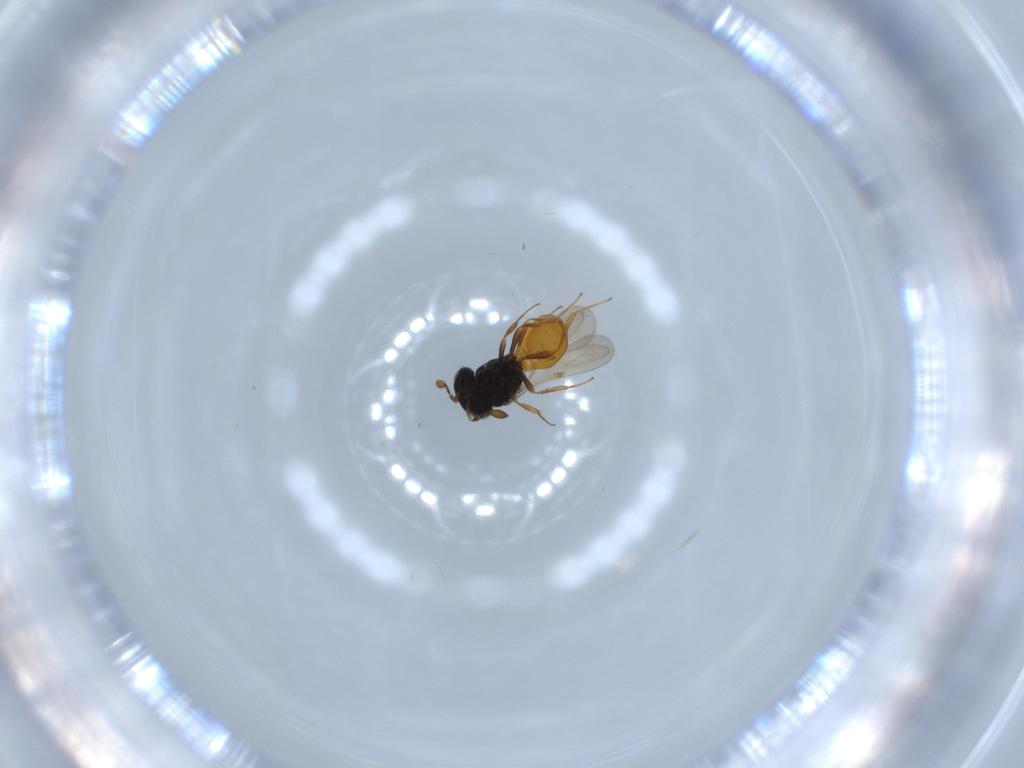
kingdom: Animalia
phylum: Arthropoda
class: Insecta
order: Hymenoptera
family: Scelionidae
